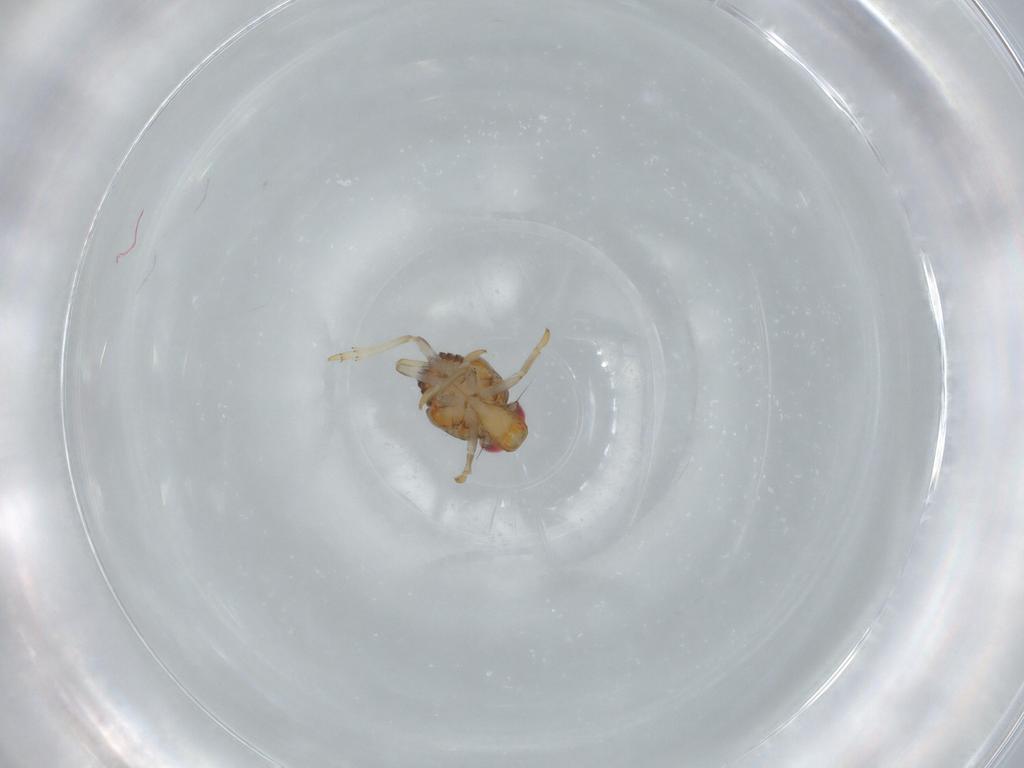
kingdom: Animalia
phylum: Arthropoda
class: Insecta
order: Hemiptera
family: Issidae
